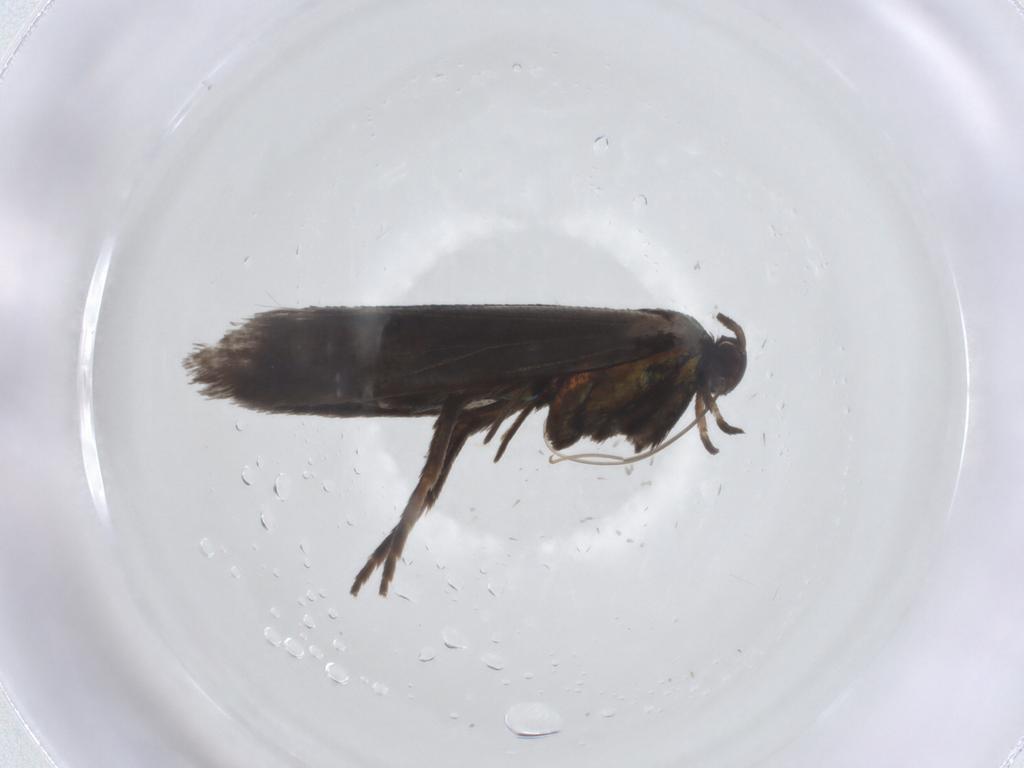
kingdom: Animalia
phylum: Arthropoda
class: Insecta
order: Lepidoptera
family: Argyresthiidae
